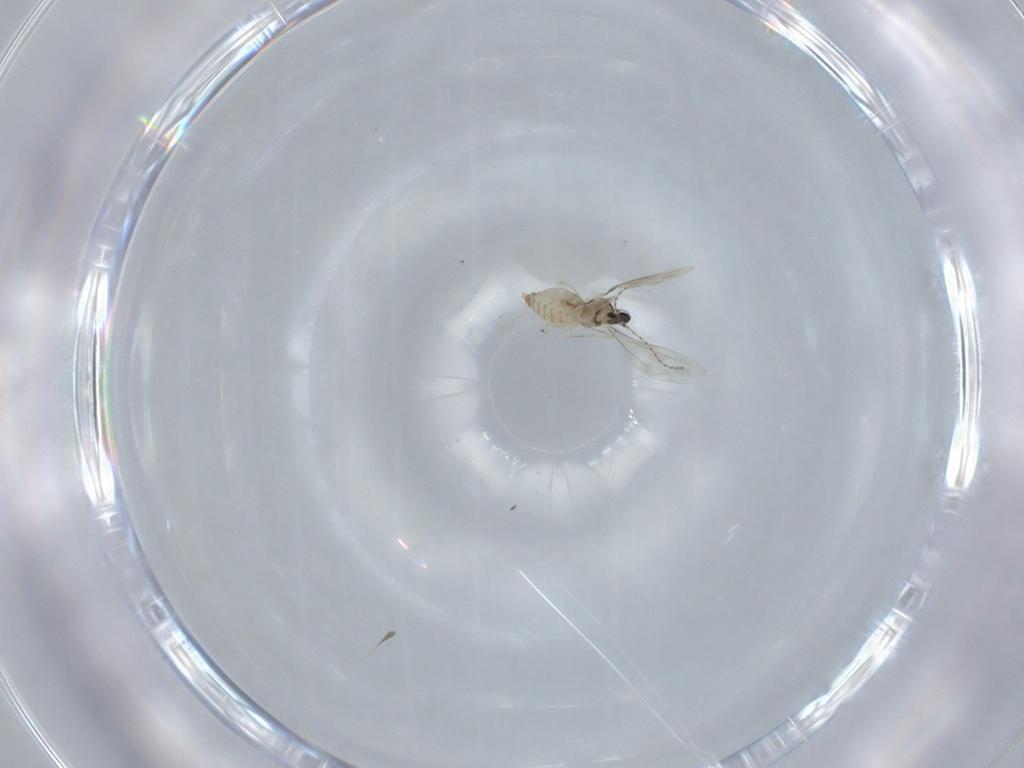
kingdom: Animalia
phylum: Arthropoda
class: Insecta
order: Diptera
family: Cecidomyiidae
